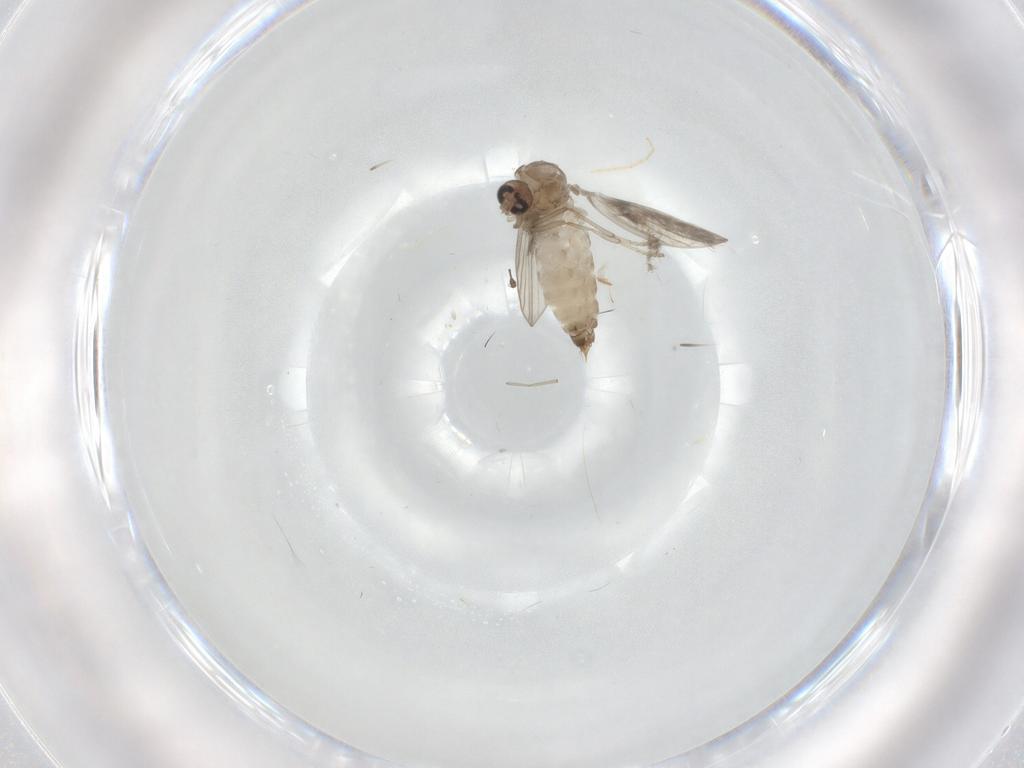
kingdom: Animalia
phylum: Arthropoda
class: Insecta
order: Diptera
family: Chironomidae
